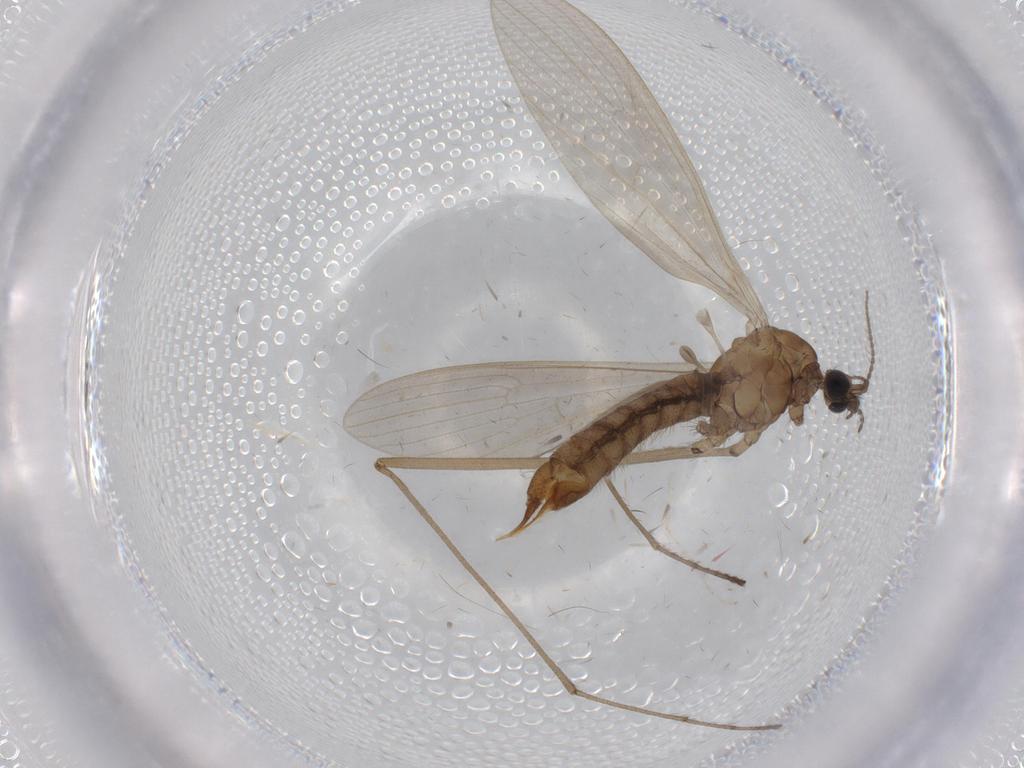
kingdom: Animalia
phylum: Arthropoda
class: Insecta
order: Diptera
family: Limoniidae
